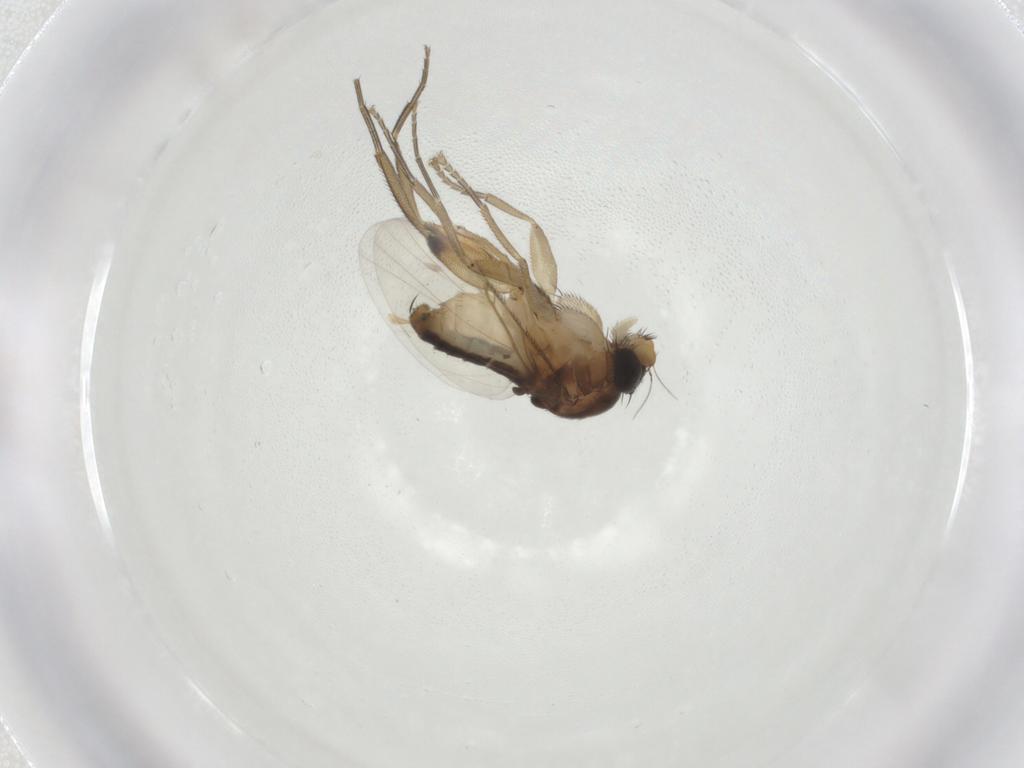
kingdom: Animalia
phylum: Arthropoda
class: Insecta
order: Diptera
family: Phoridae
